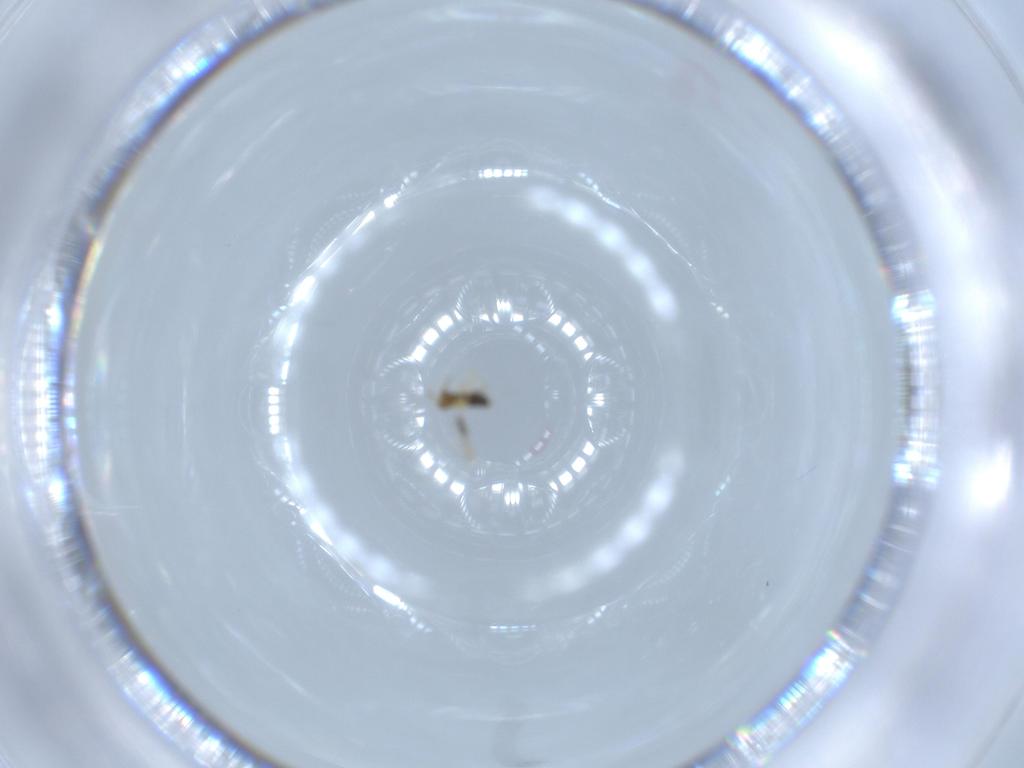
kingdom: Animalia
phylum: Arthropoda
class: Insecta
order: Hymenoptera
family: Aphelinidae
